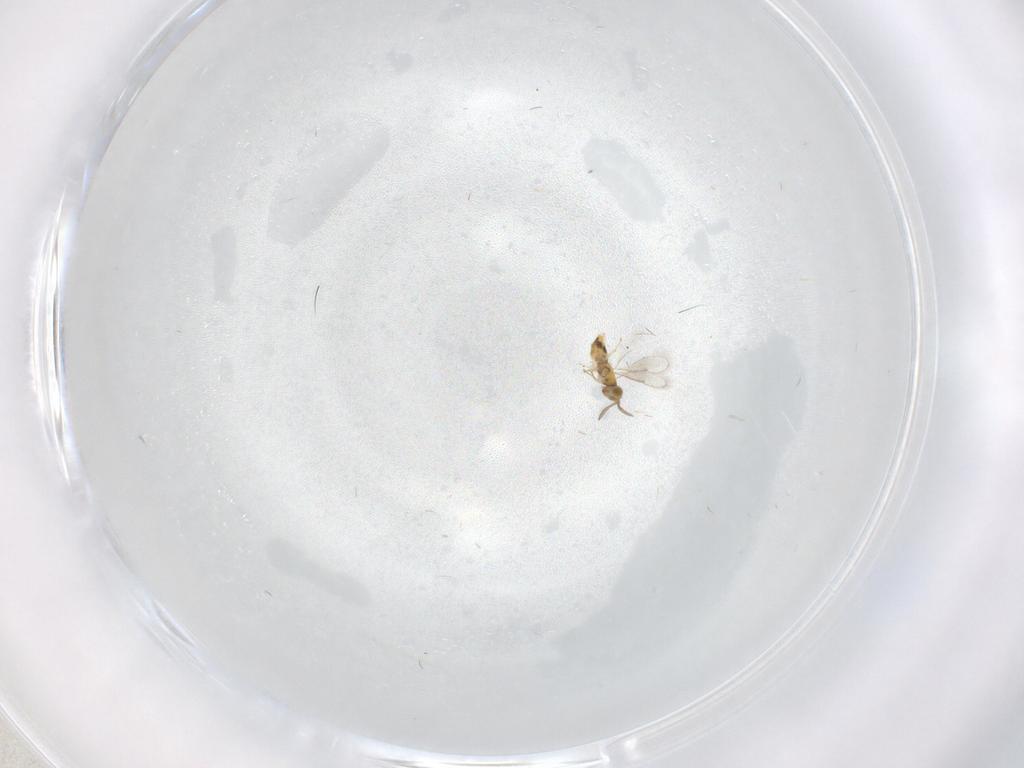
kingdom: Animalia
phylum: Arthropoda
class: Insecta
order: Hymenoptera
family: Aphelinidae
